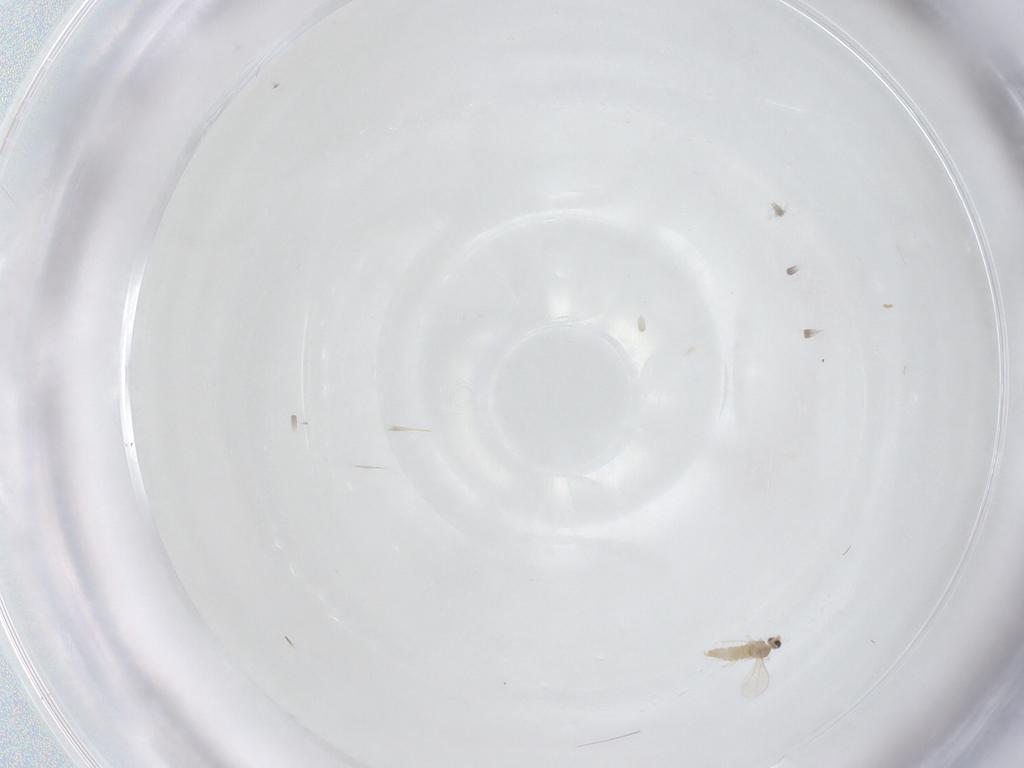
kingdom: Animalia
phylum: Arthropoda
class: Insecta
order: Diptera
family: Cecidomyiidae
